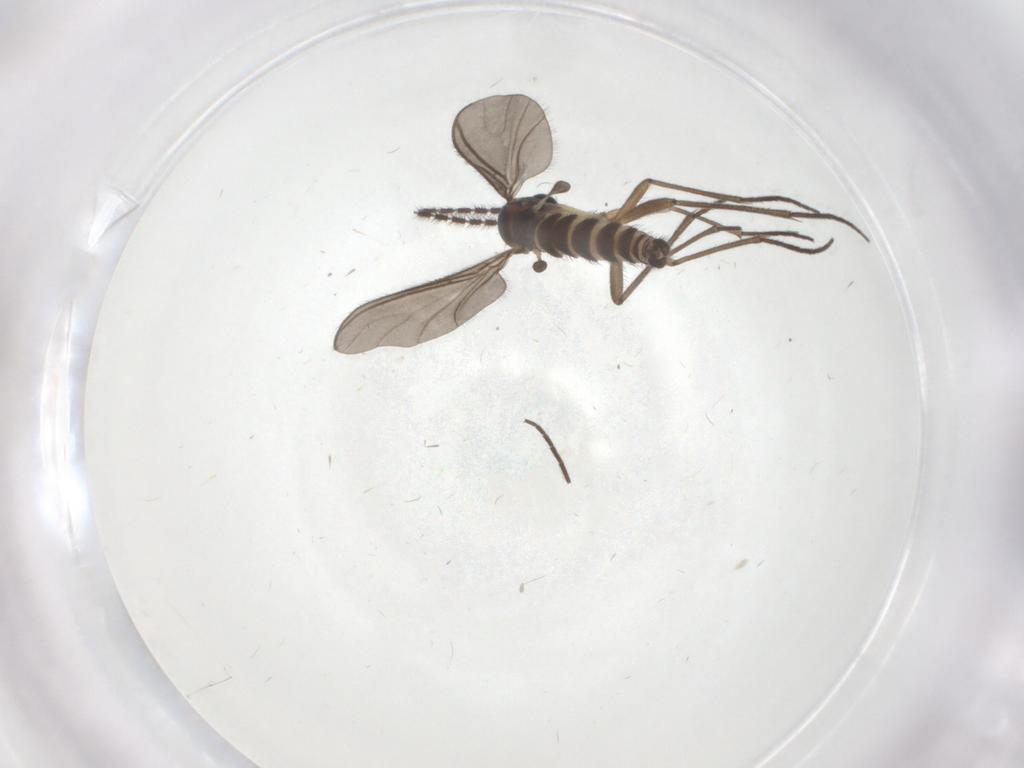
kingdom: Animalia
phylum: Arthropoda
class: Insecta
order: Diptera
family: Sciaridae
